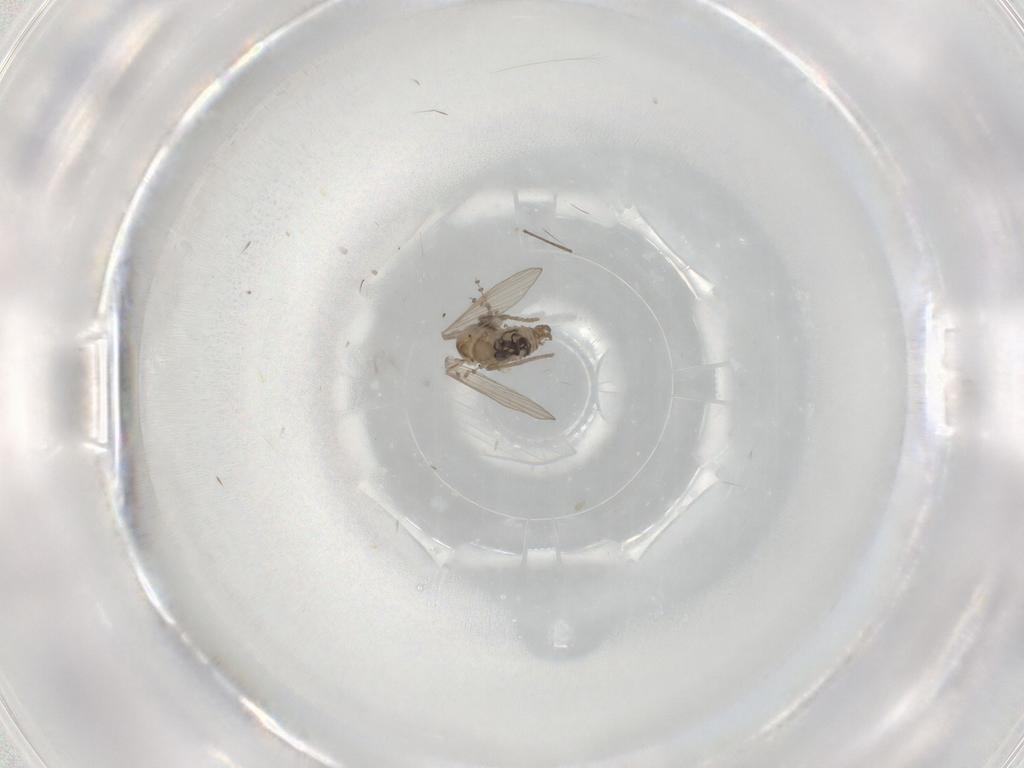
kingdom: Animalia
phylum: Arthropoda
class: Insecta
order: Diptera
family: Psychodidae
